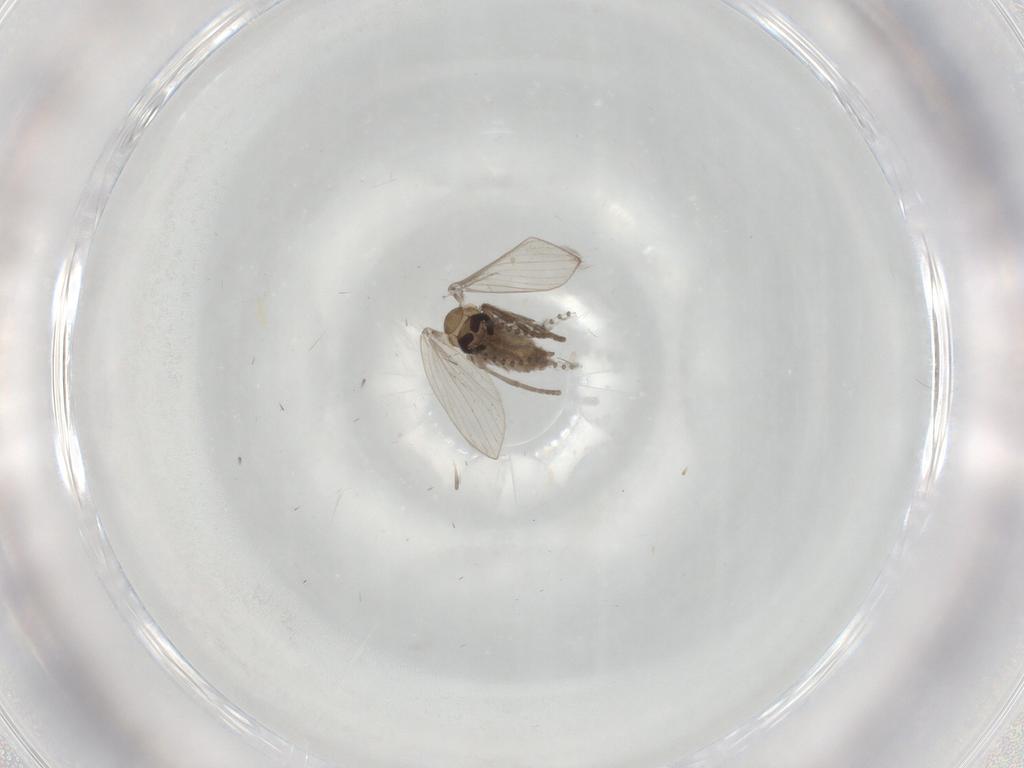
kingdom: Animalia
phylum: Arthropoda
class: Insecta
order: Diptera
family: Psychodidae
